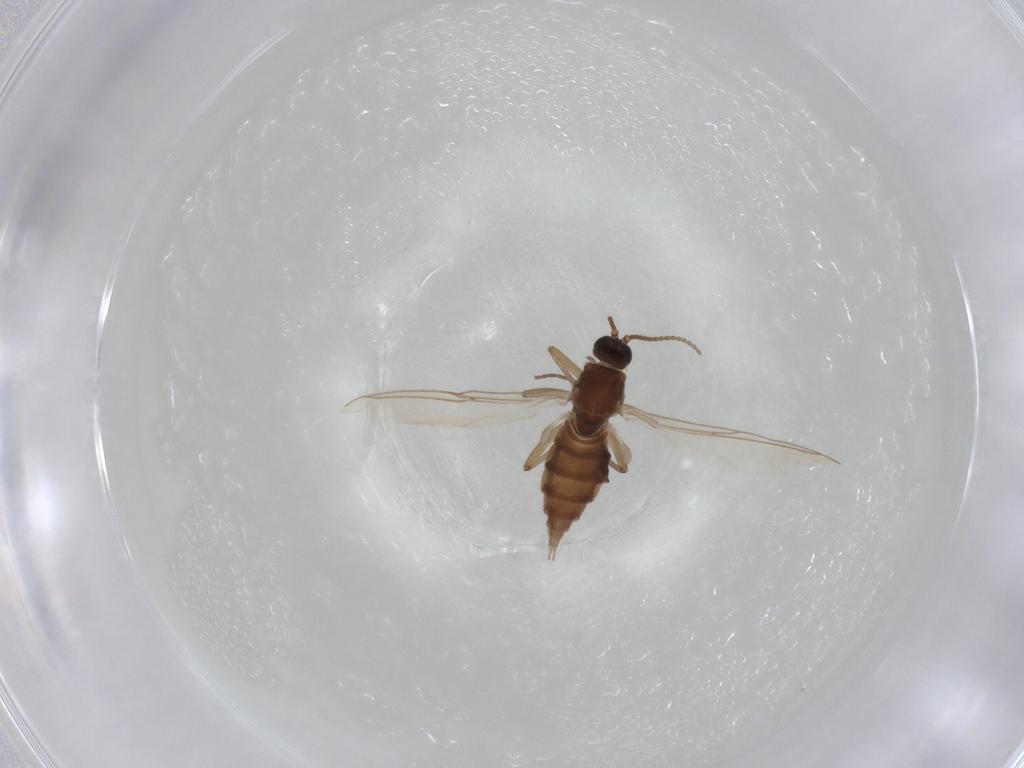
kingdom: Animalia
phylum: Arthropoda
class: Insecta
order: Diptera
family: Sciaridae
